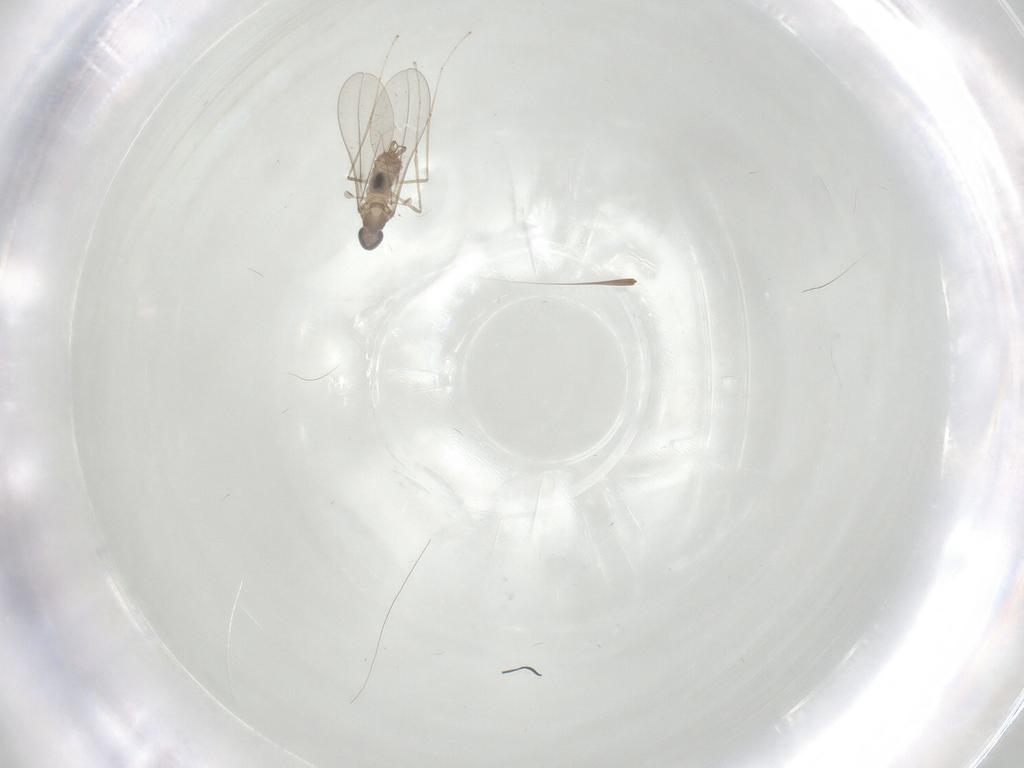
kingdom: Animalia
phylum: Arthropoda
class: Insecta
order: Diptera
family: Cecidomyiidae
